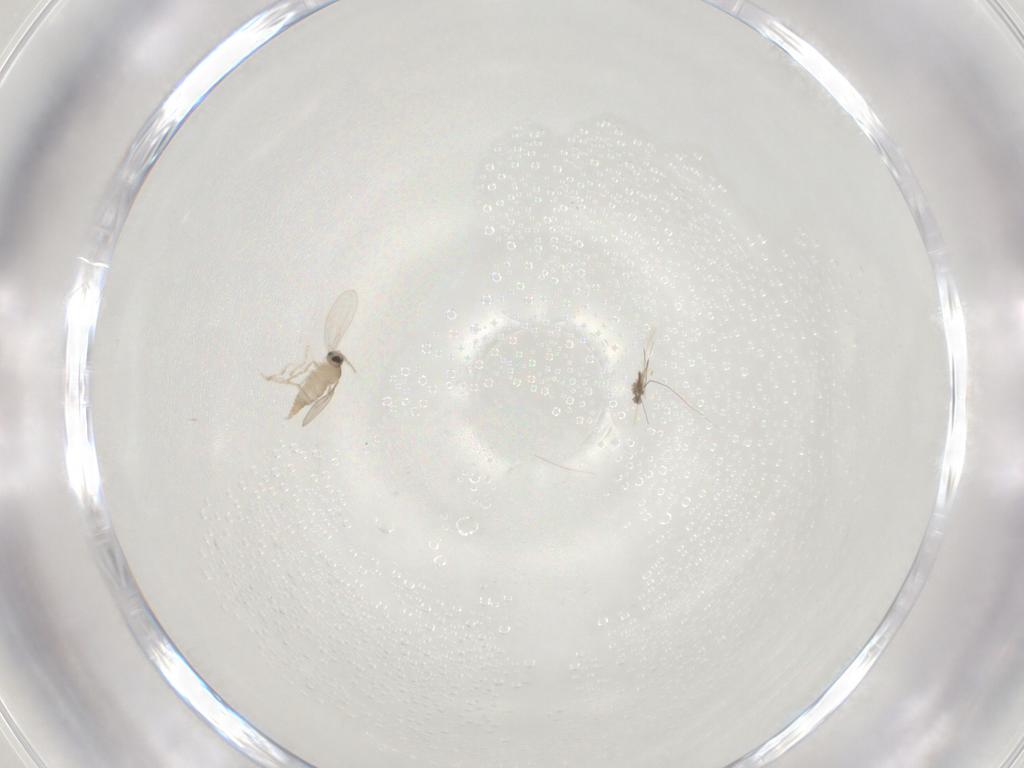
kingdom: Animalia
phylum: Arthropoda
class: Insecta
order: Diptera
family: Cecidomyiidae
